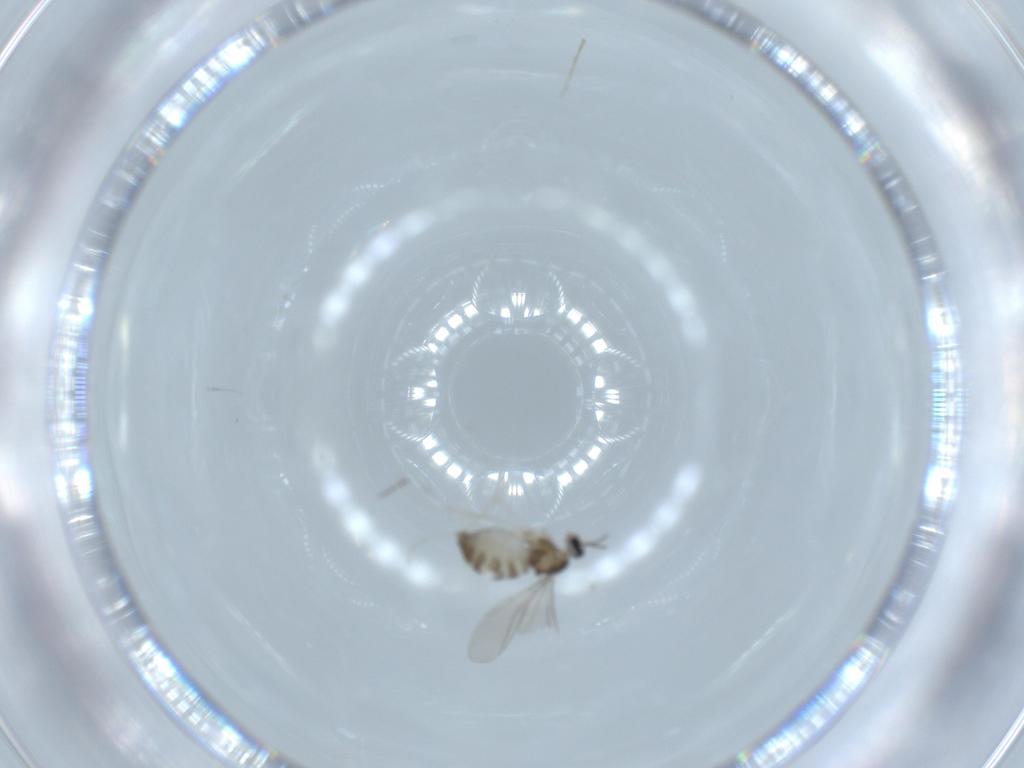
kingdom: Animalia
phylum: Arthropoda
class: Insecta
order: Diptera
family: Cecidomyiidae
